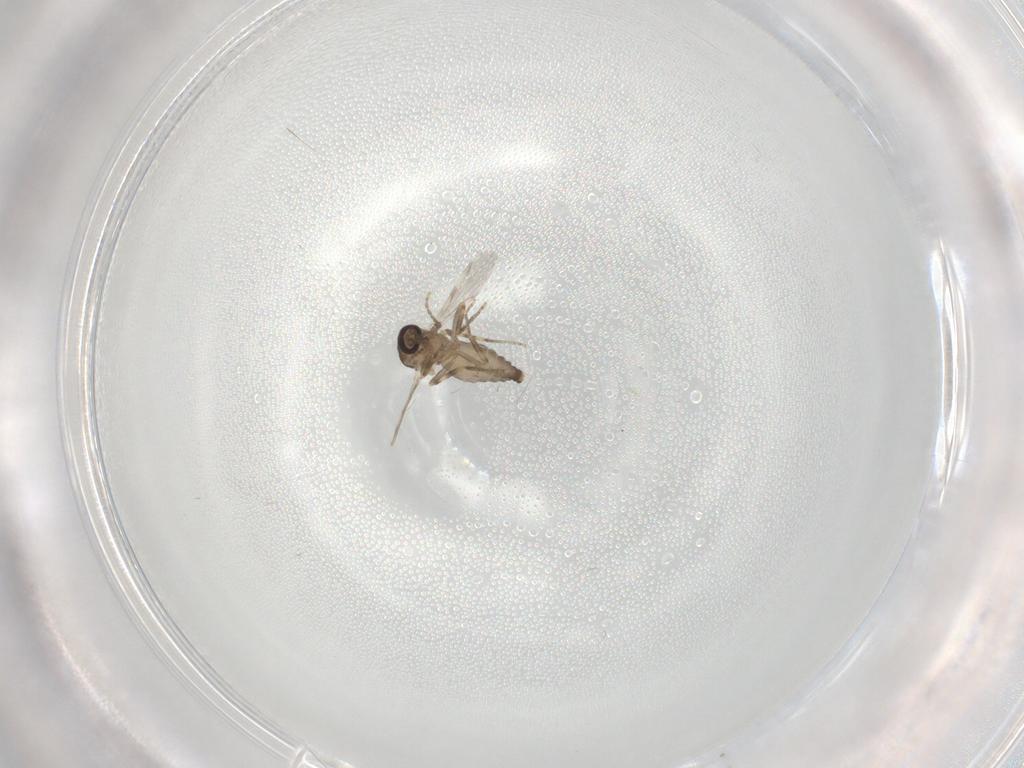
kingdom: Animalia
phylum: Arthropoda
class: Insecta
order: Diptera
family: Ceratopogonidae
